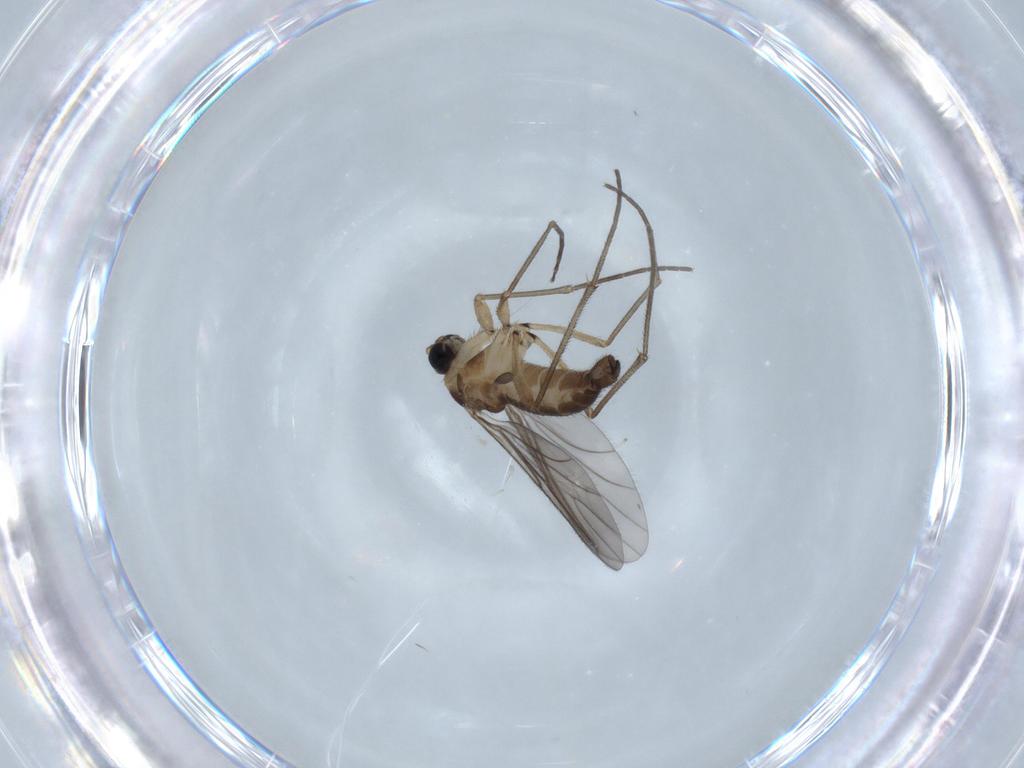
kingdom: Animalia
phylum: Arthropoda
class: Insecta
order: Diptera
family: Sciaridae
